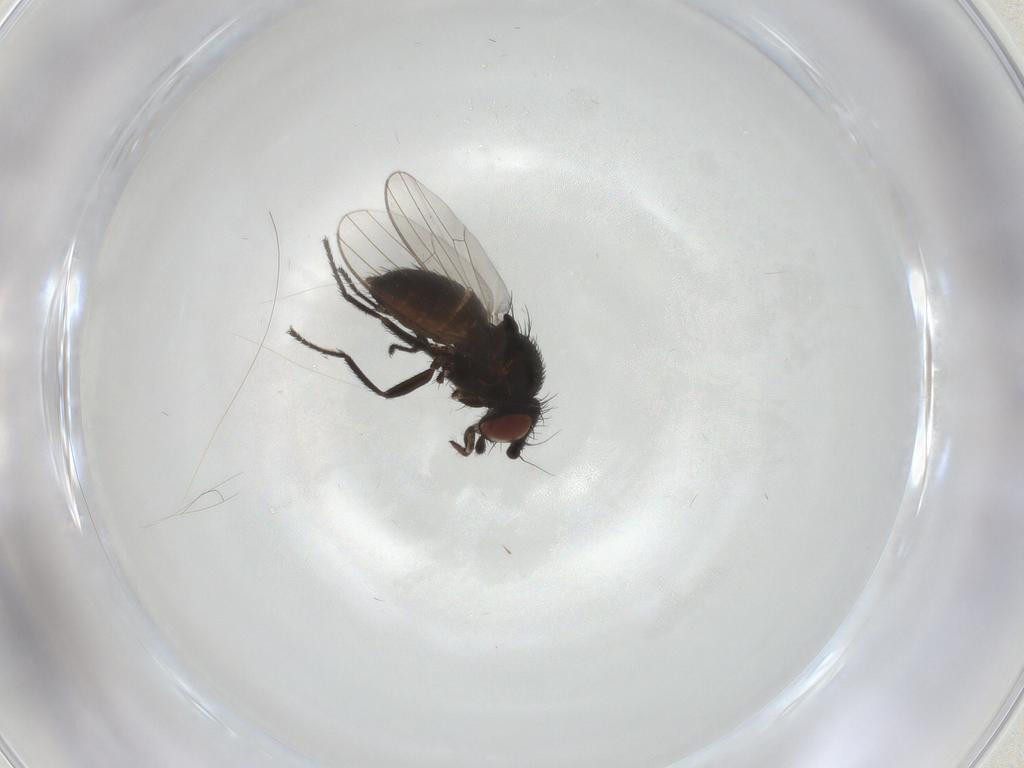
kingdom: Animalia
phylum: Arthropoda
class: Insecta
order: Diptera
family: Milichiidae
